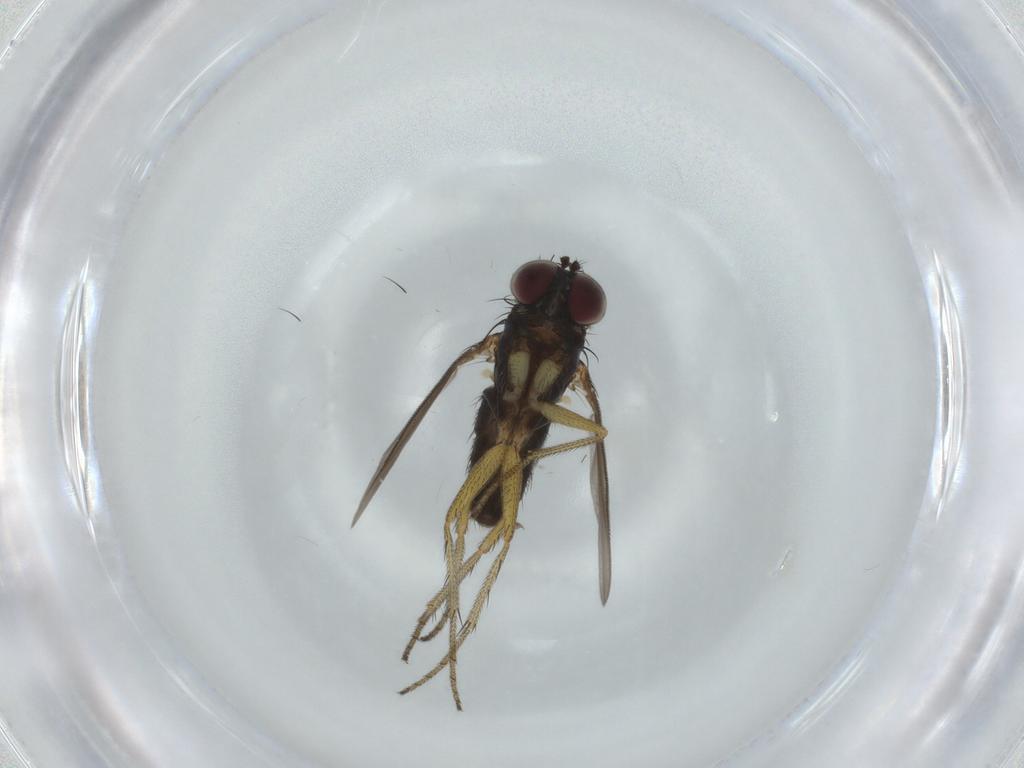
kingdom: Animalia
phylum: Arthropoda
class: Insecta
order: Diptera
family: Dolichopodidae
